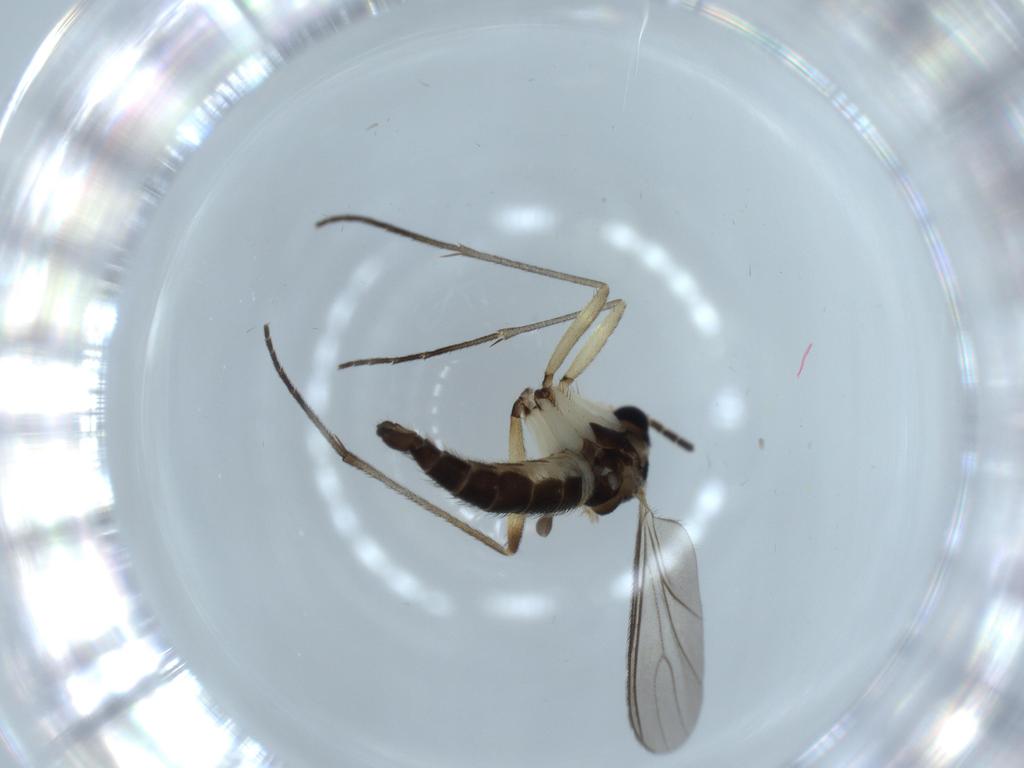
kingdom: Animalia
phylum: Arthropoda
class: Insecta
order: Diptera
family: Sciaridae
